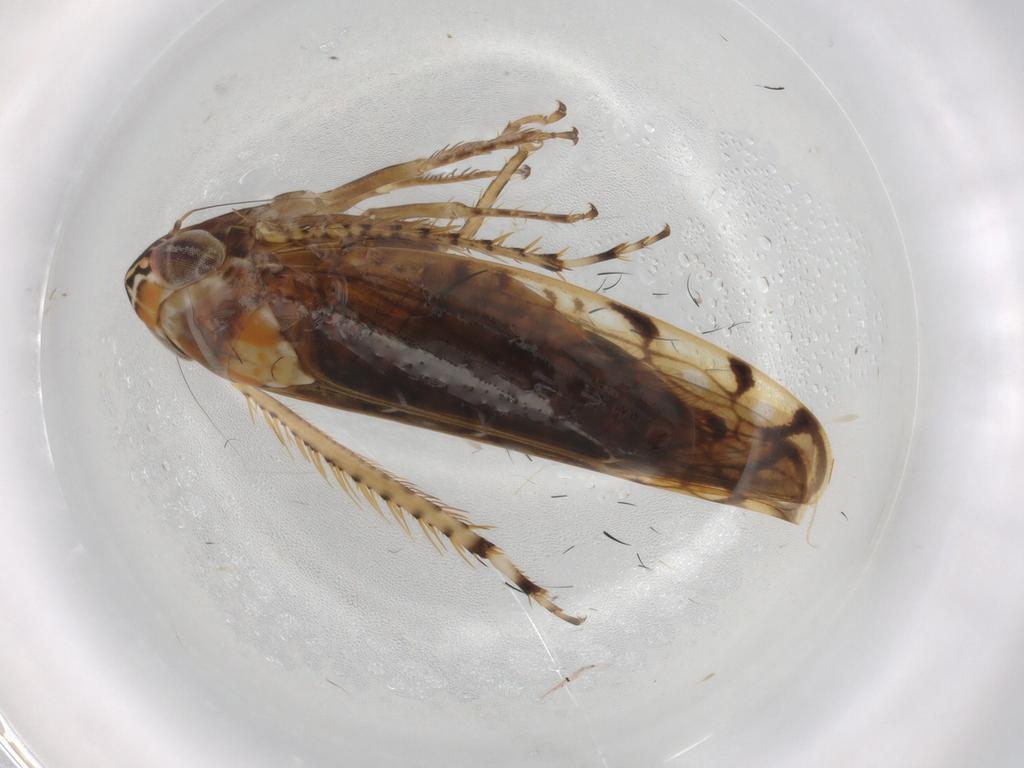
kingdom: Animalia
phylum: Arthropoda
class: Insecta
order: Hemiptera
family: Cicadellidae
